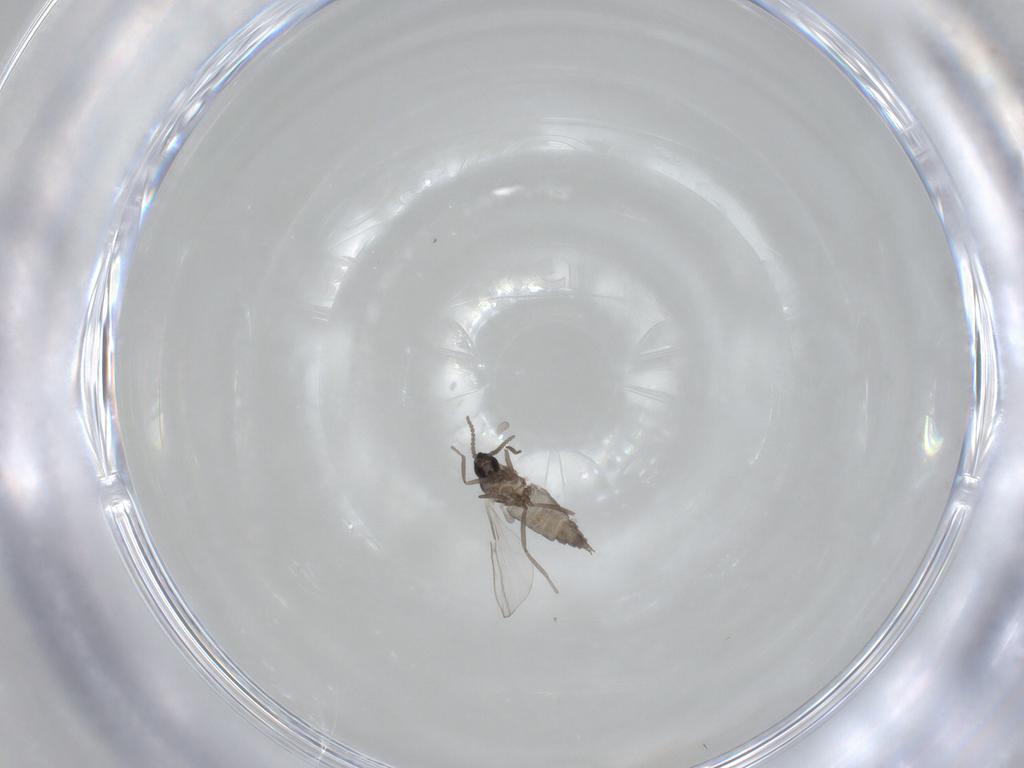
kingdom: Animalia
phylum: Arthropoda
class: Insecta
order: Diptera
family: Cecidomyiidae
